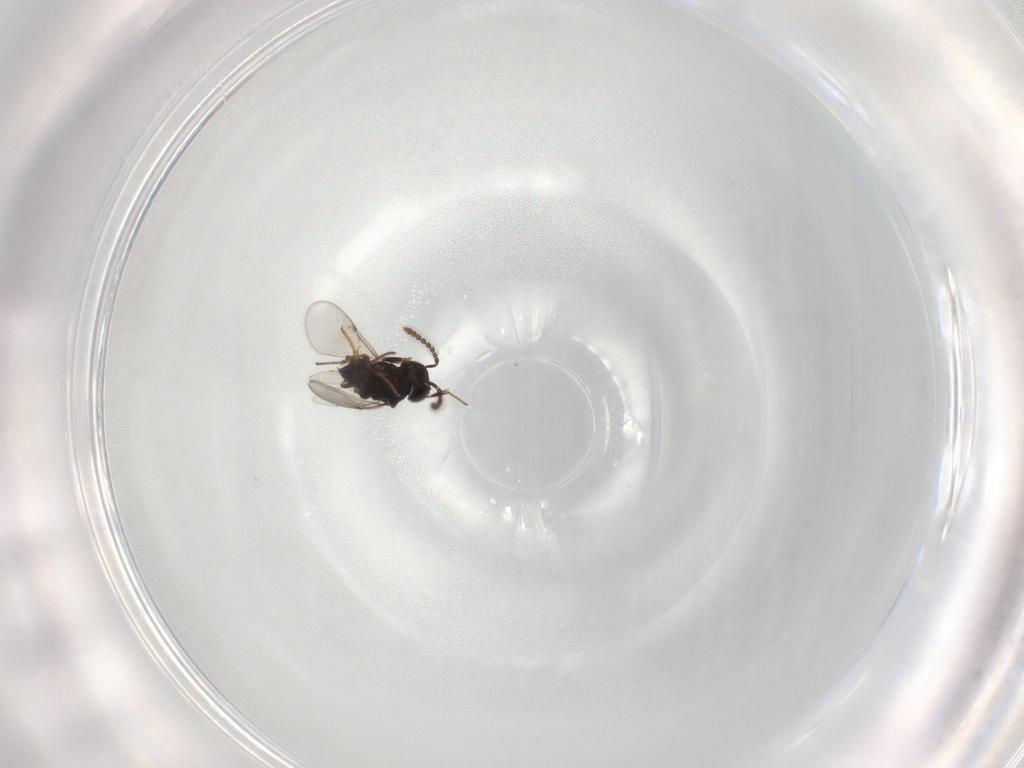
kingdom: Animalia
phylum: Arthropoda
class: Insecta
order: Hymenoptera
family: Encyrtidae
